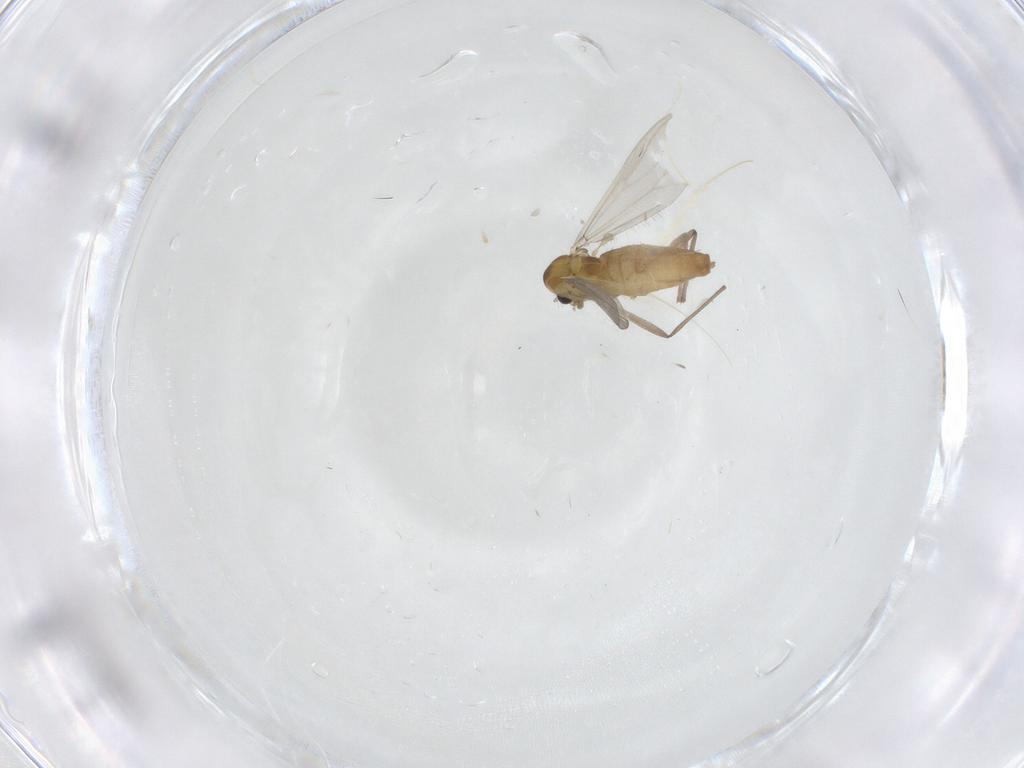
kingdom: Animalia
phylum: Arthropoda
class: Insecta
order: Diptera
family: Chironomidae
